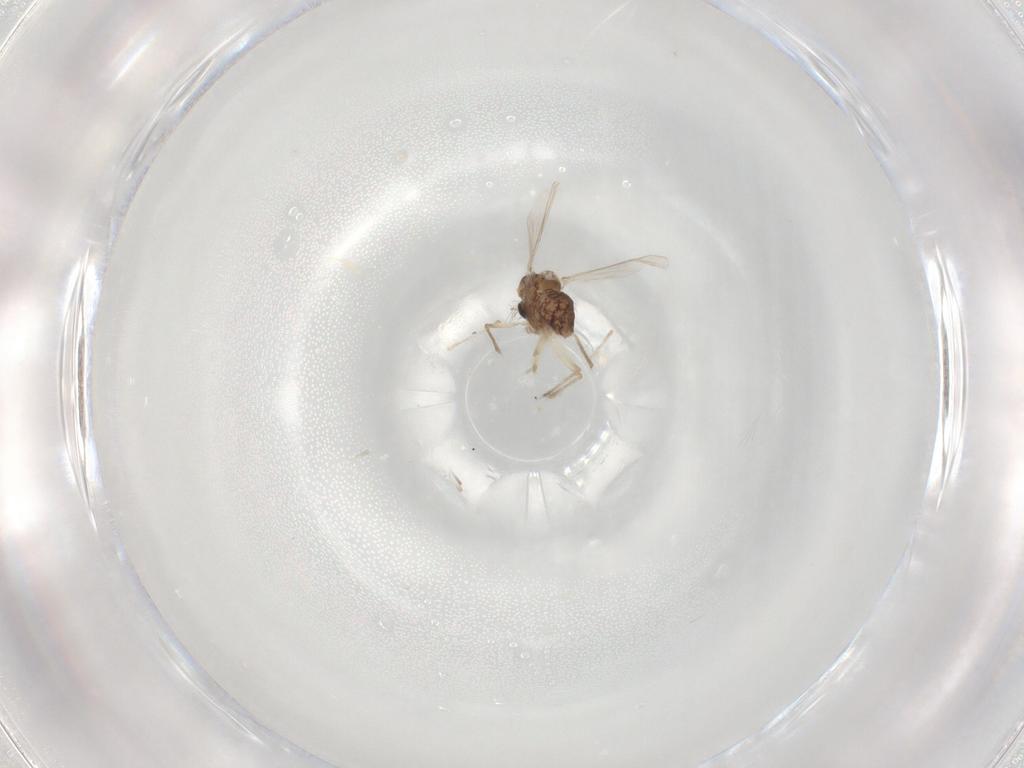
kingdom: Animalia
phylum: Arthropoda
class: Insecta
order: Diptera
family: Chironomidae
